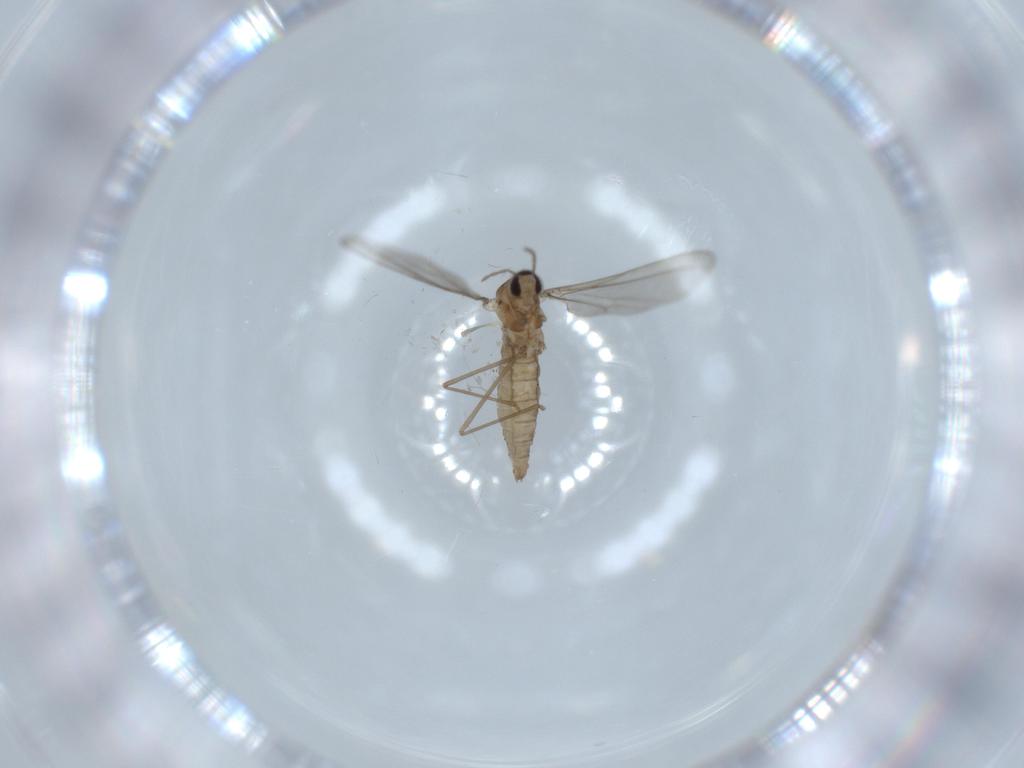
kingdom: Animalia
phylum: Arthropoda
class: Insecta
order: Diptera
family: Cecidomyiidae
